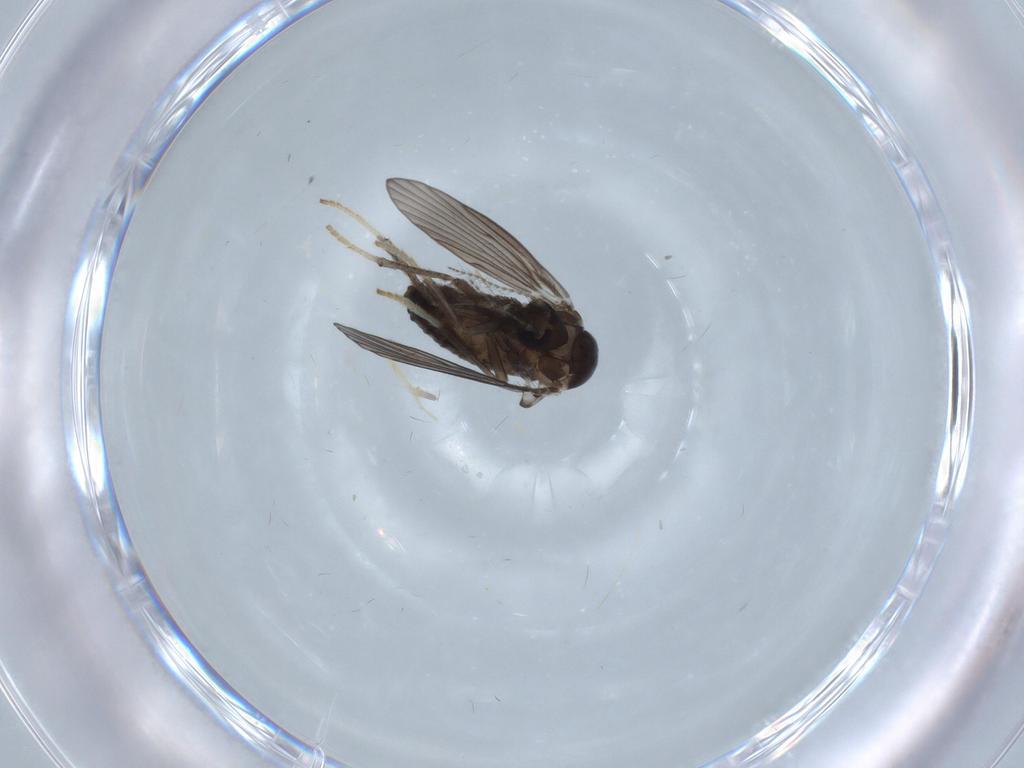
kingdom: Animalia
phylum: Arthropoda
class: Insecta
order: Diptera
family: Psychodidae
